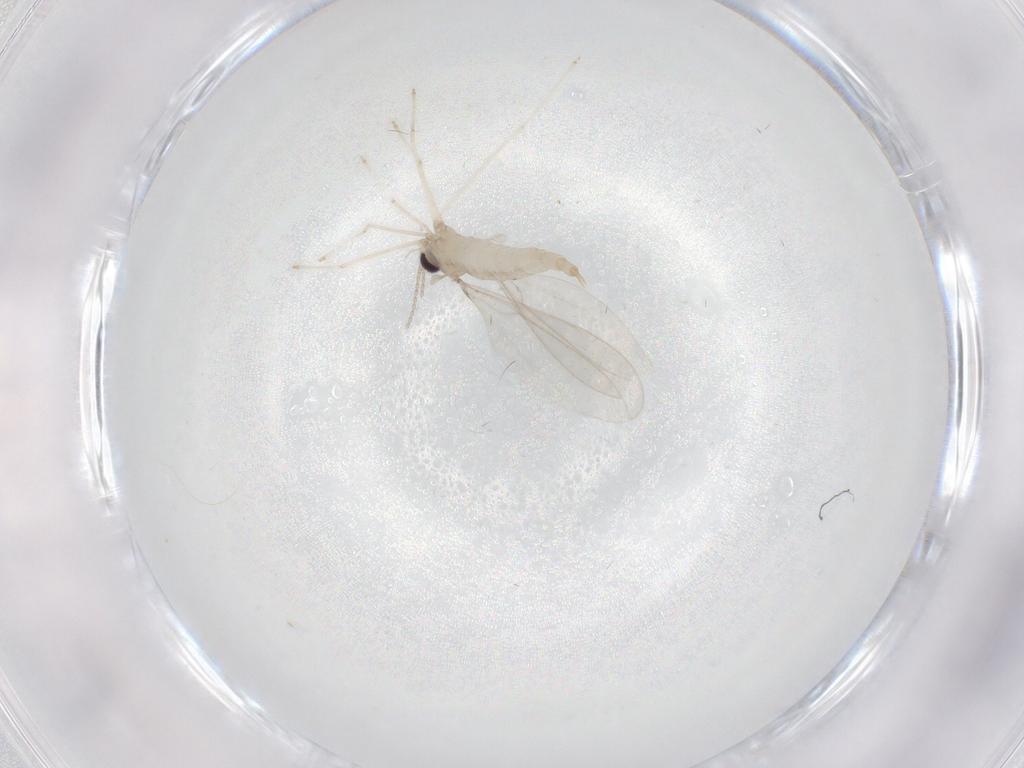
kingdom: Animalia
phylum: Arthropoda
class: Insecta
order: Diptera
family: Cecidomyiidae
